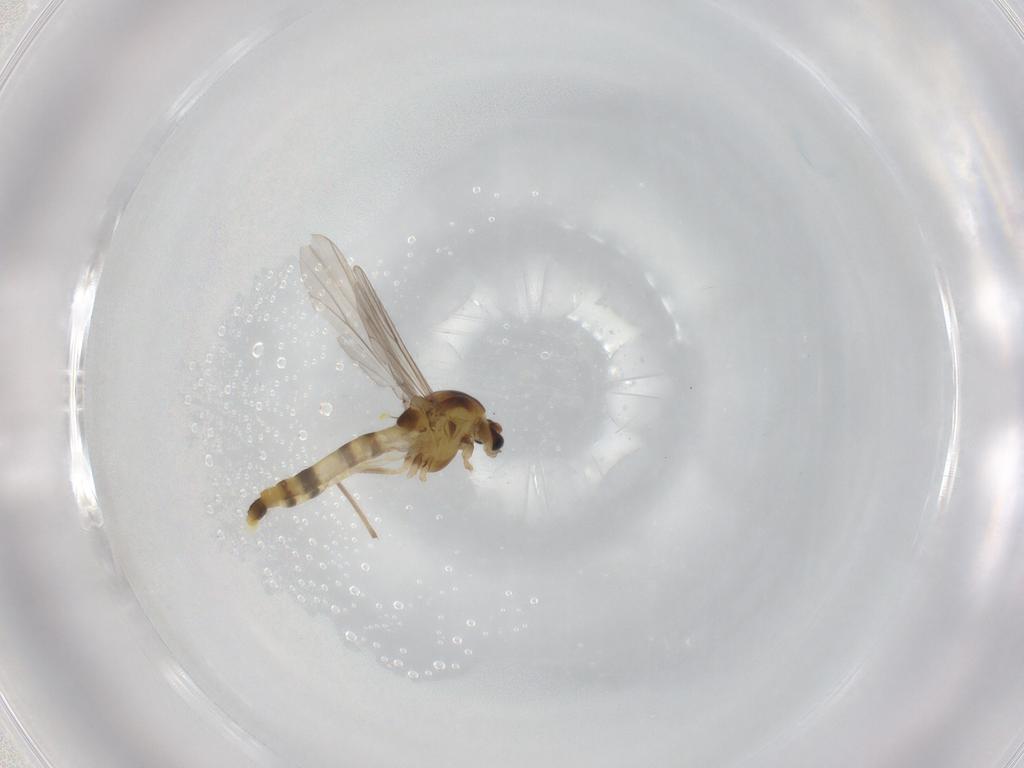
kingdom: Animalia
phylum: Arthropoda
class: Insecta
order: Diptera
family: Chironomidae
